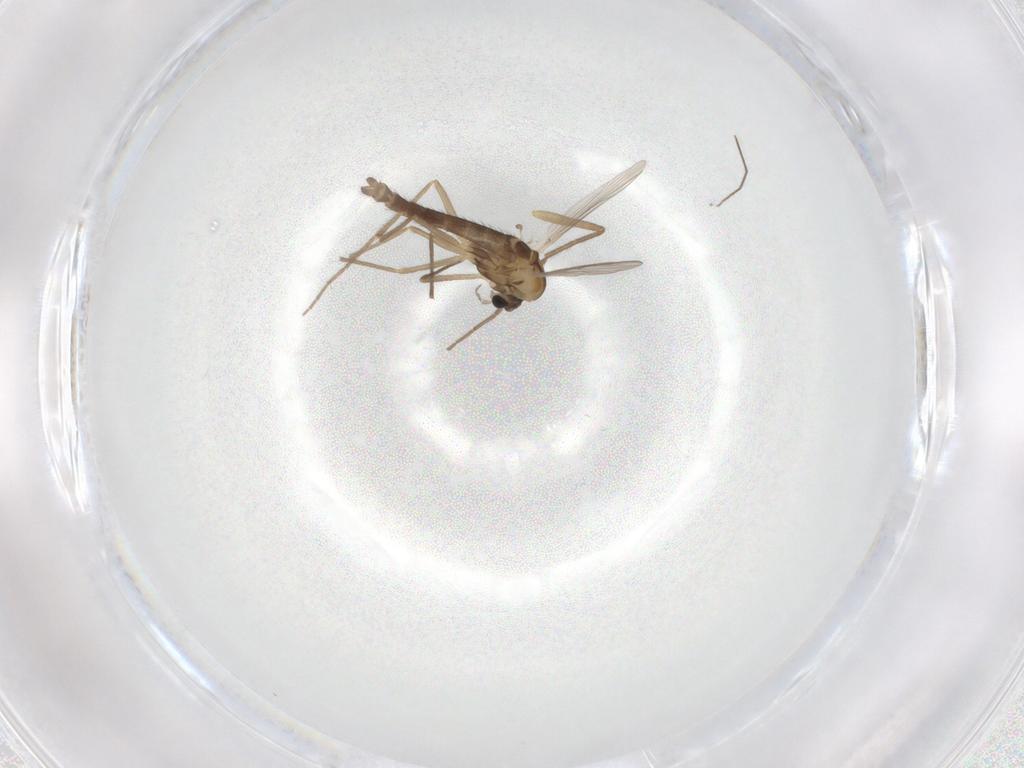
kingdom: Animalia
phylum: Arthropoda
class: Insecta
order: Diptera
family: Chironomidae
